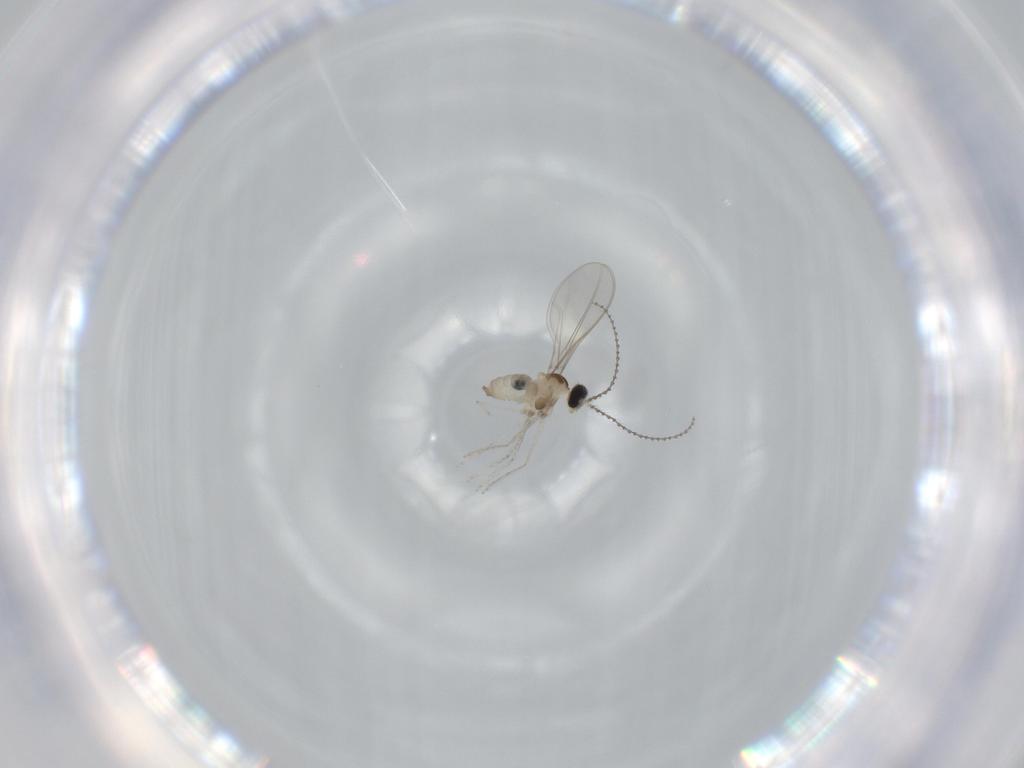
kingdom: Animalia
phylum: Arthropoda
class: Insecta
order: Diptera
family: Cecidomyiidae
